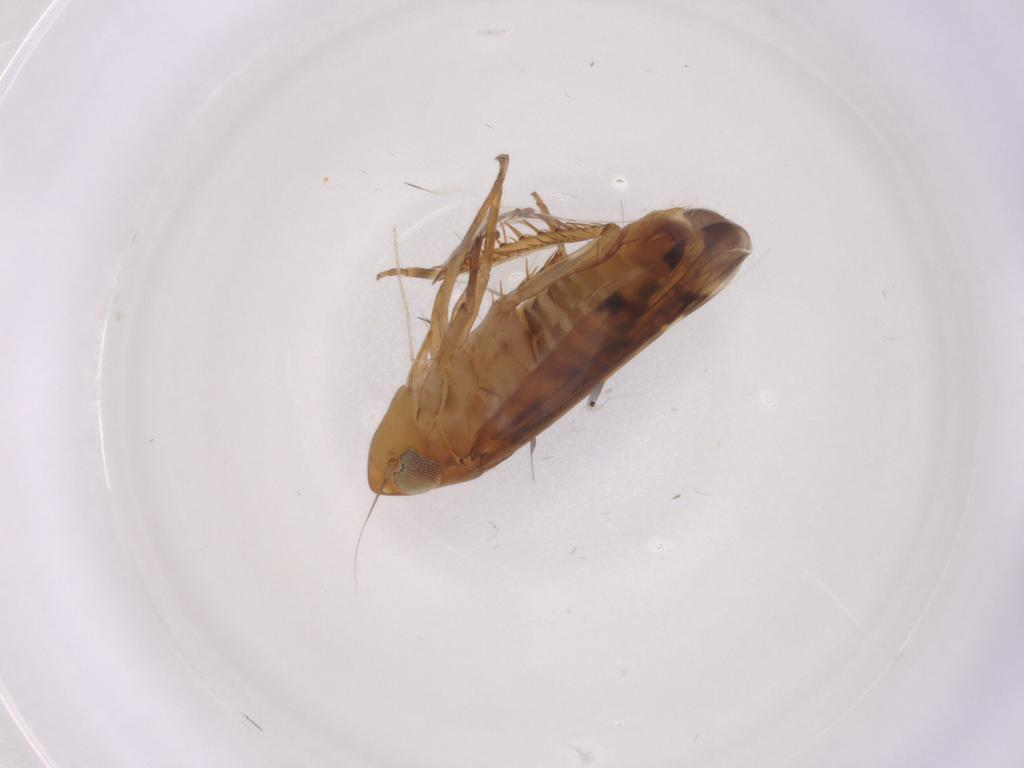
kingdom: Animalia
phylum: Arthropoda
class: Insecta
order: Hemiptera
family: Cercopidae
